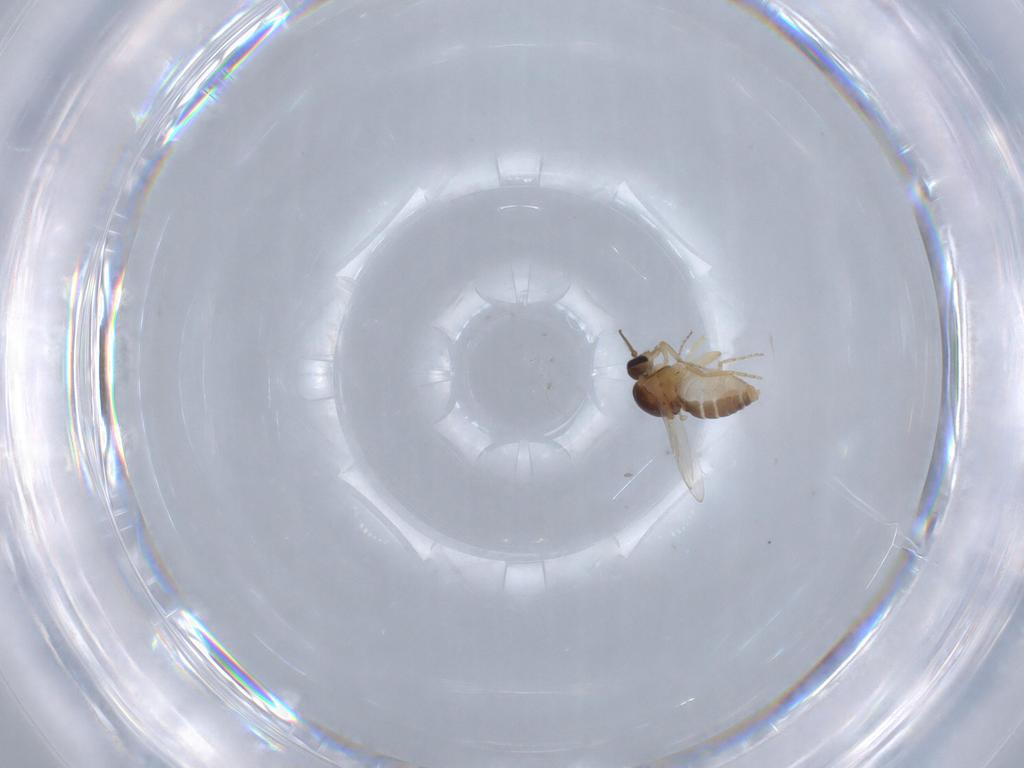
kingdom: Animalia
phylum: Arthropoda
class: Insecta
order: Diptera
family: Ceratopogonidae
